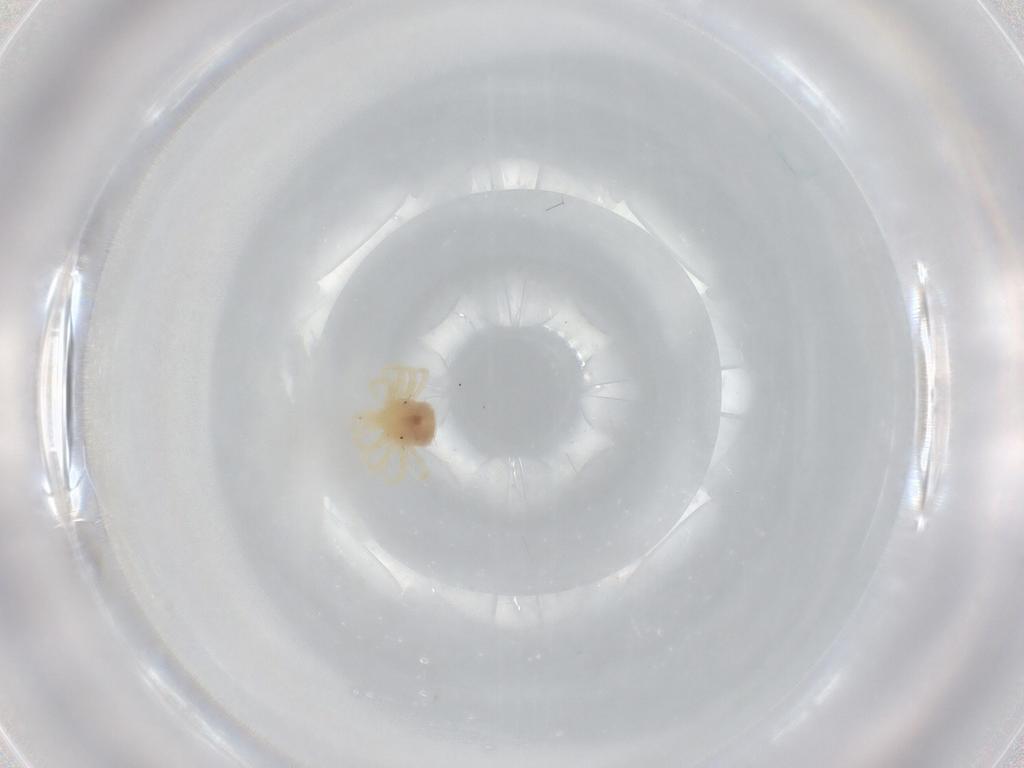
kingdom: Animalia
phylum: Arthropoda
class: Arachnida
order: Trombidiformes
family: Anystidae
